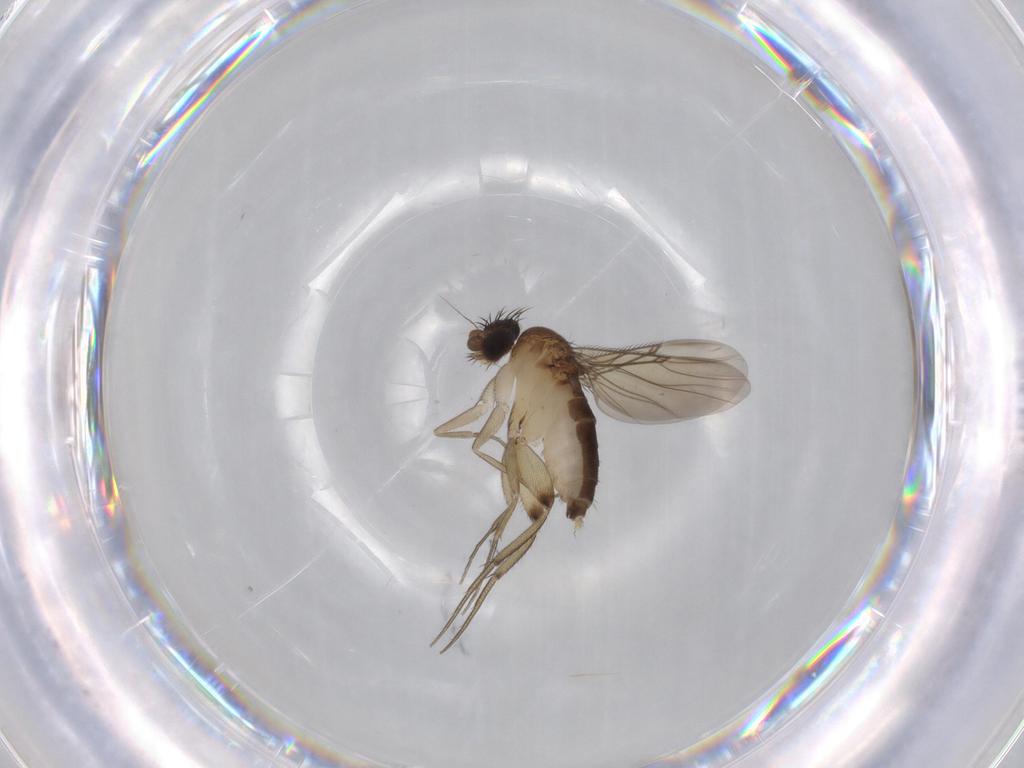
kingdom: Animalia
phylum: Arthropoda
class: Insecta
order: Diptera
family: Phoridae
